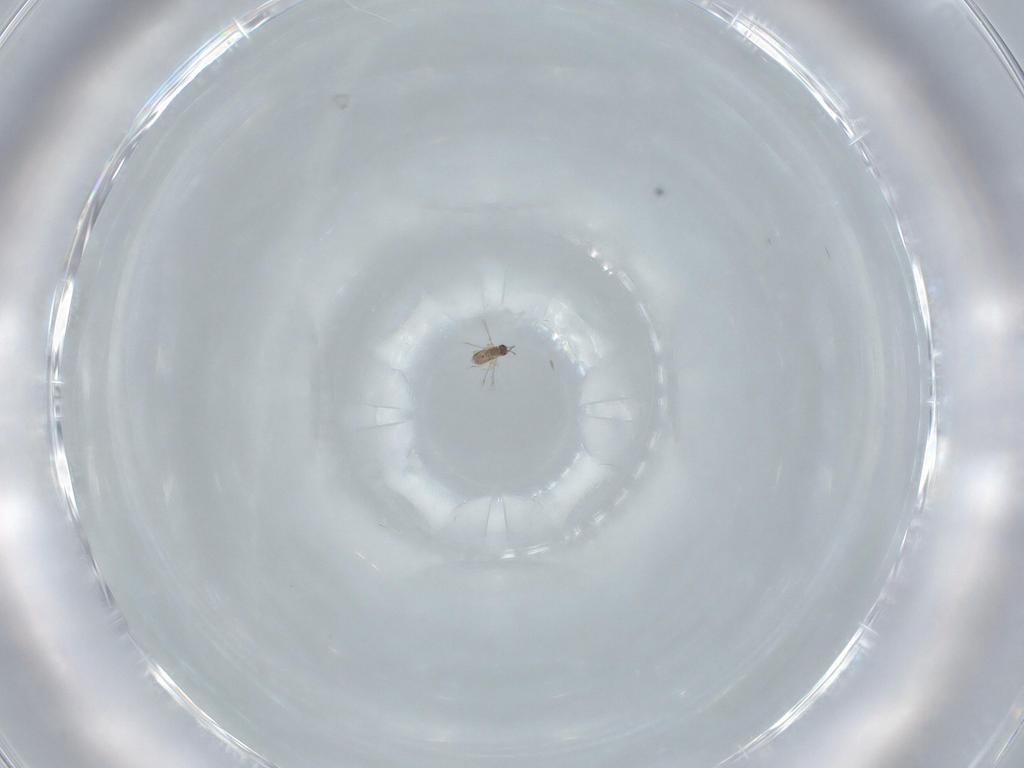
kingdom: Animalia
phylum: Arthropoda
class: Insecta
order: Hymenoptera
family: Mymaridae
